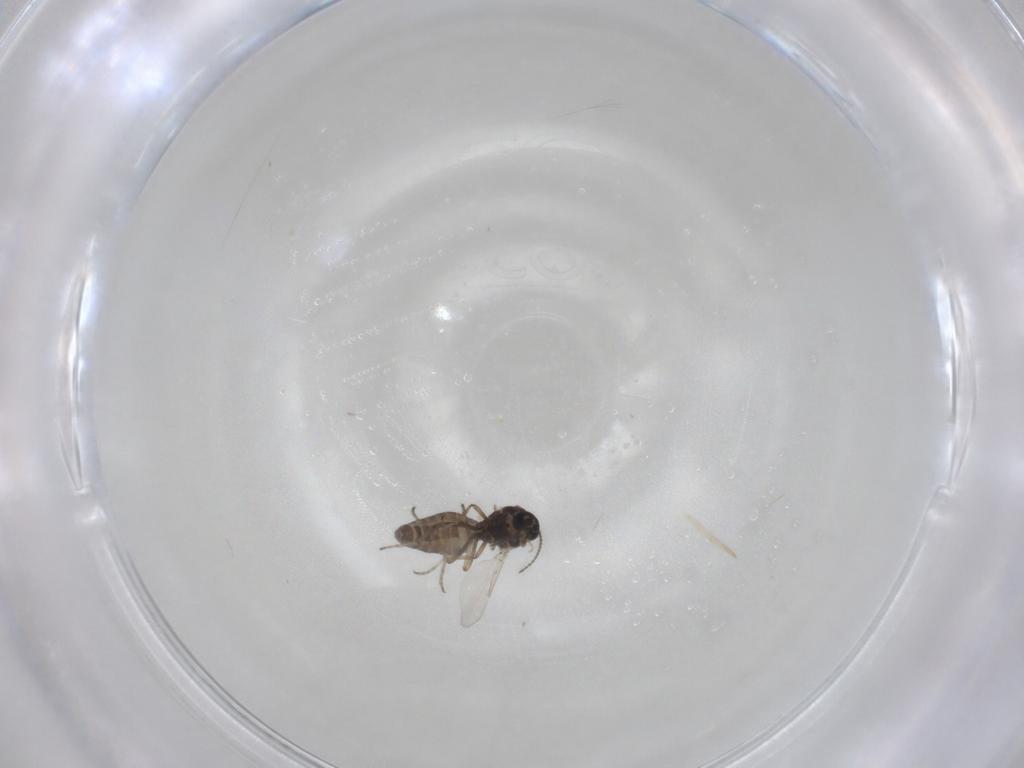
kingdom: Animalia
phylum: Arthropoda
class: Insecta
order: Diptera
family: Ceratopogonidae
